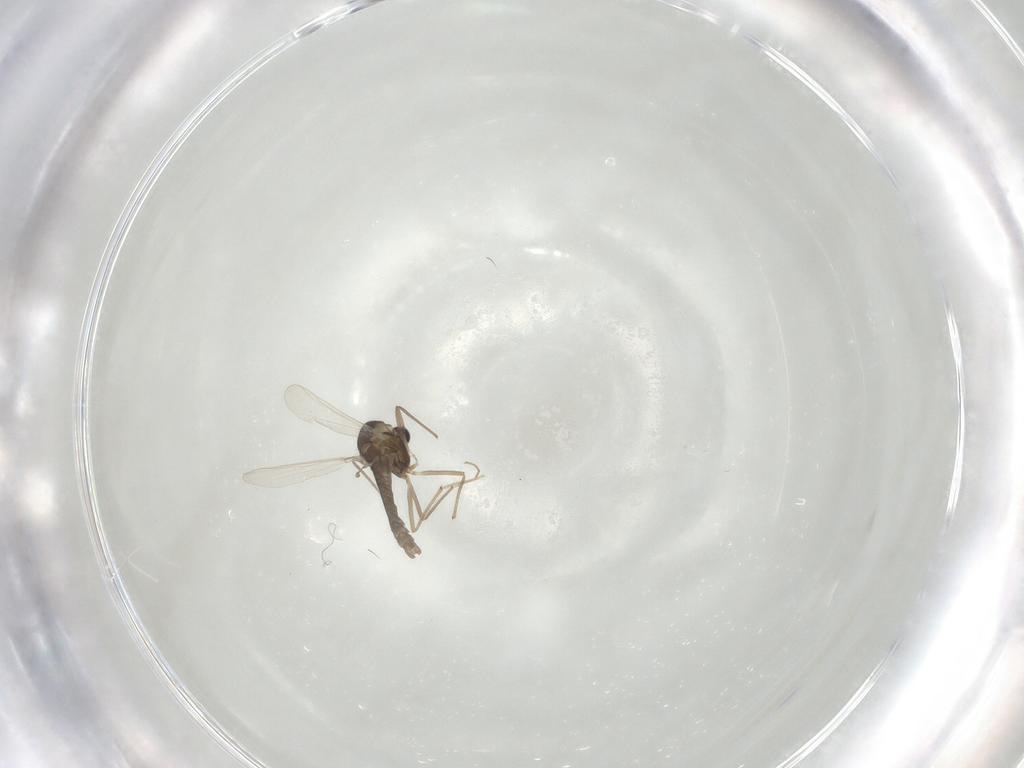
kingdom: Animalia
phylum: Arthropoda
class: Insecta
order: Diptera
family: Chironomidae
